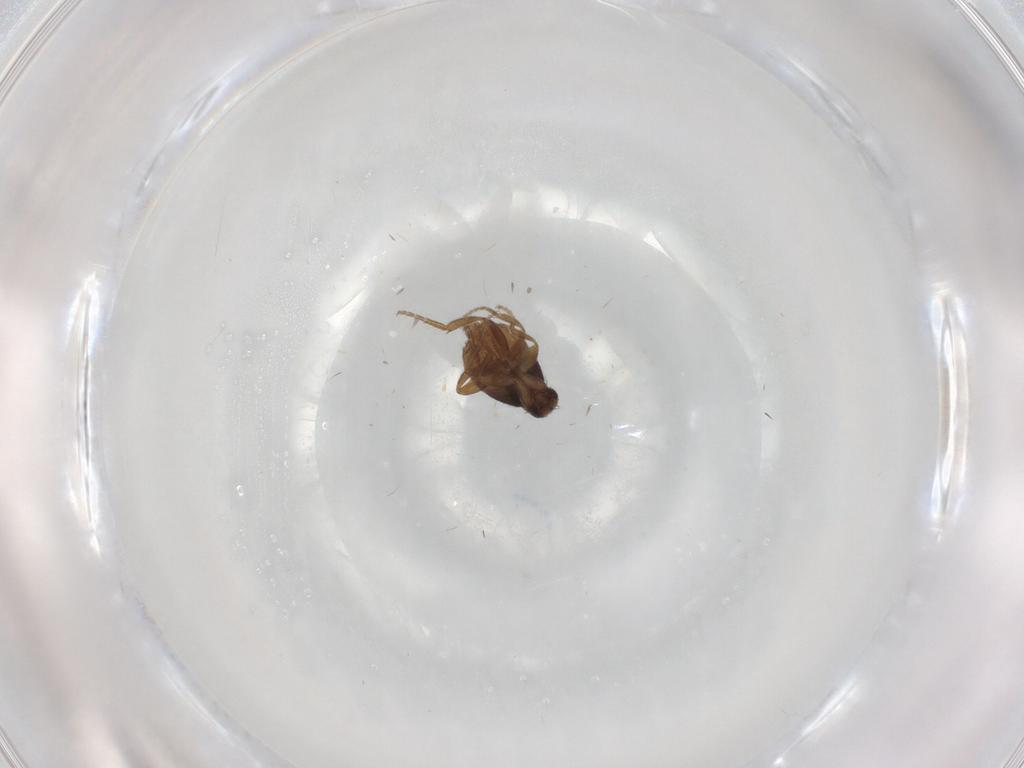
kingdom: Animalia
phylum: Arthropoda
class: Insecta
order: Diptera
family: Phoridae
